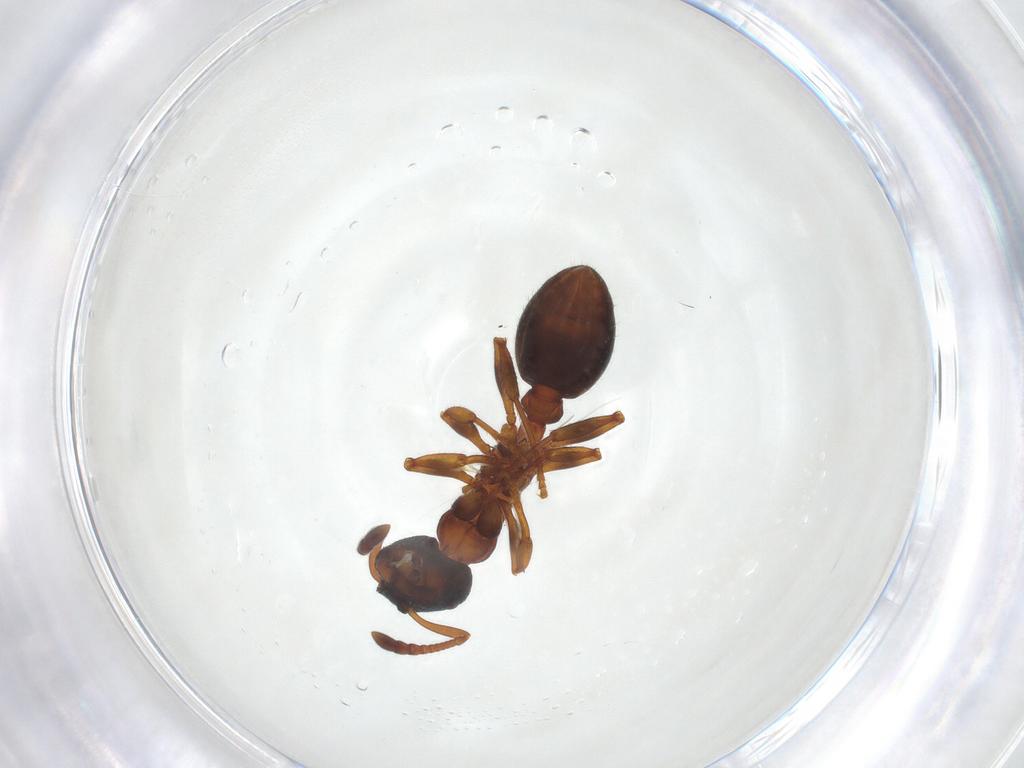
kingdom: Animalia
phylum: Arthropoda
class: Insecta
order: Hymenoptera
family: Formicidae
